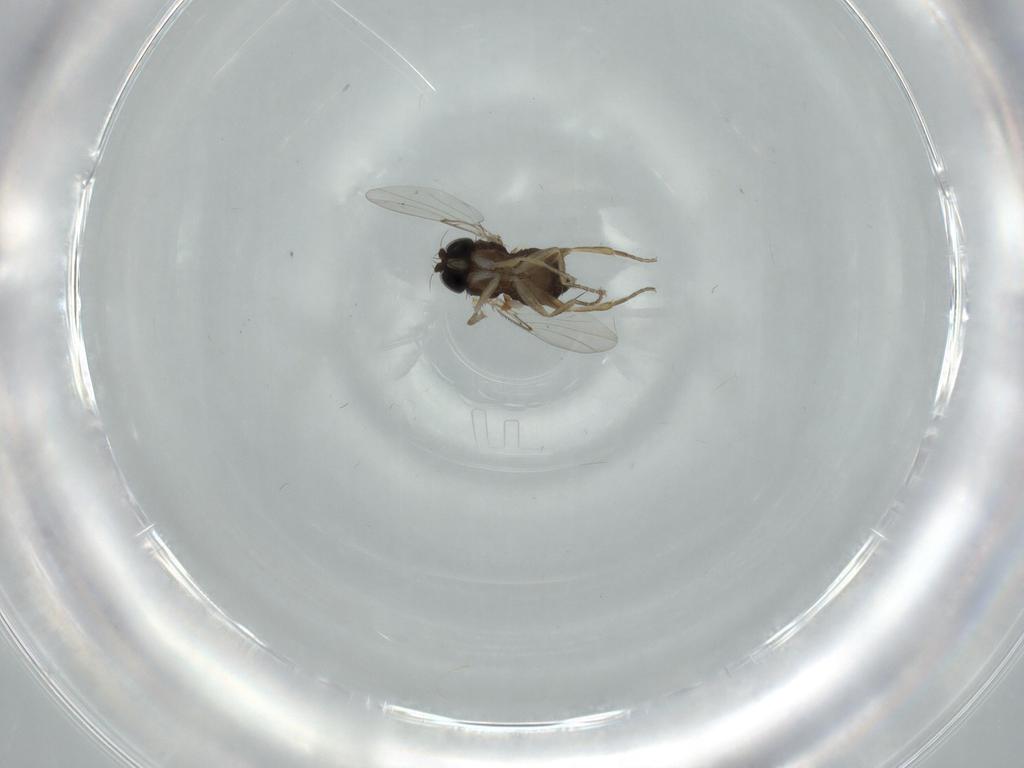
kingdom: Animalia
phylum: Arthropoda
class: Insecta
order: Diptera
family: Phoridae
